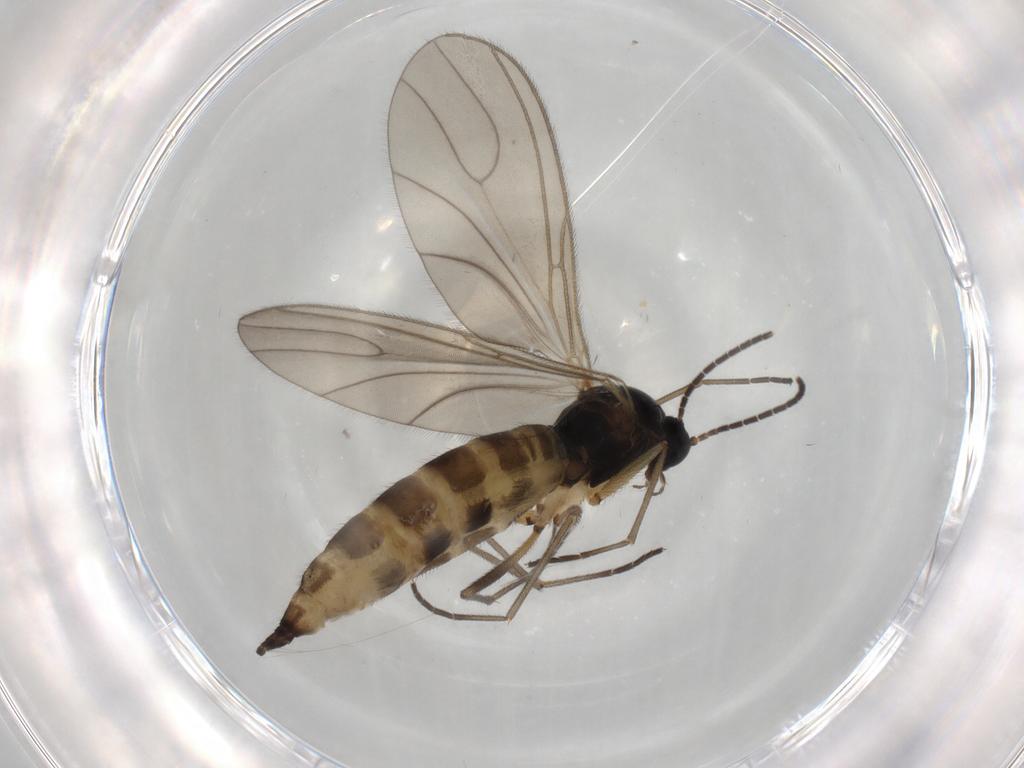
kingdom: Animalia
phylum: Arthropoda
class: Insecta
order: Diptera
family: Sciaridae
